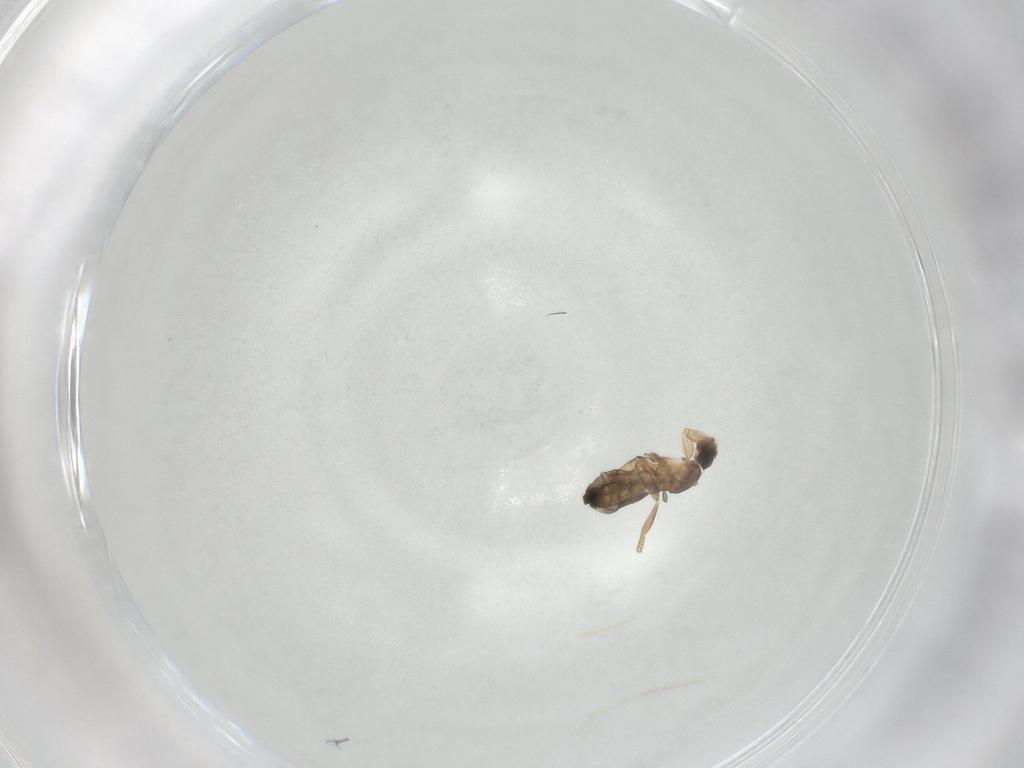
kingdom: Animalia
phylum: Arthropoda
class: Insecta
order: Diptera
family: Phoridae
